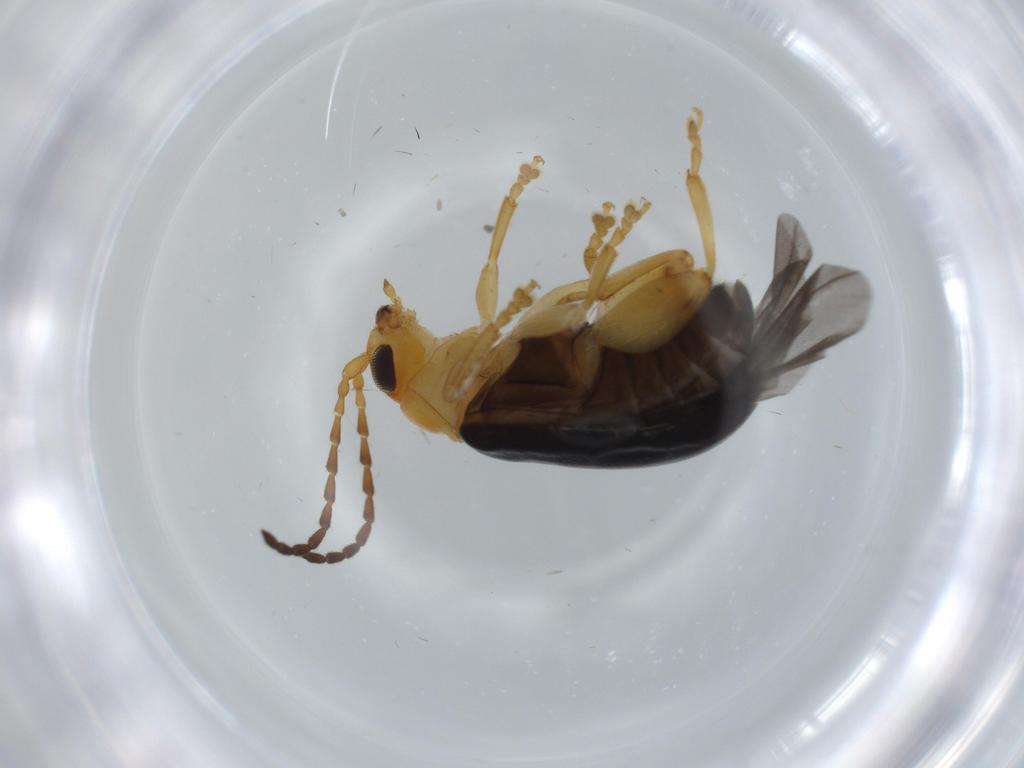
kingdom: Animalia
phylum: Arthropoda
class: Insecta
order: Coleoptera
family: Chrysomelidae
